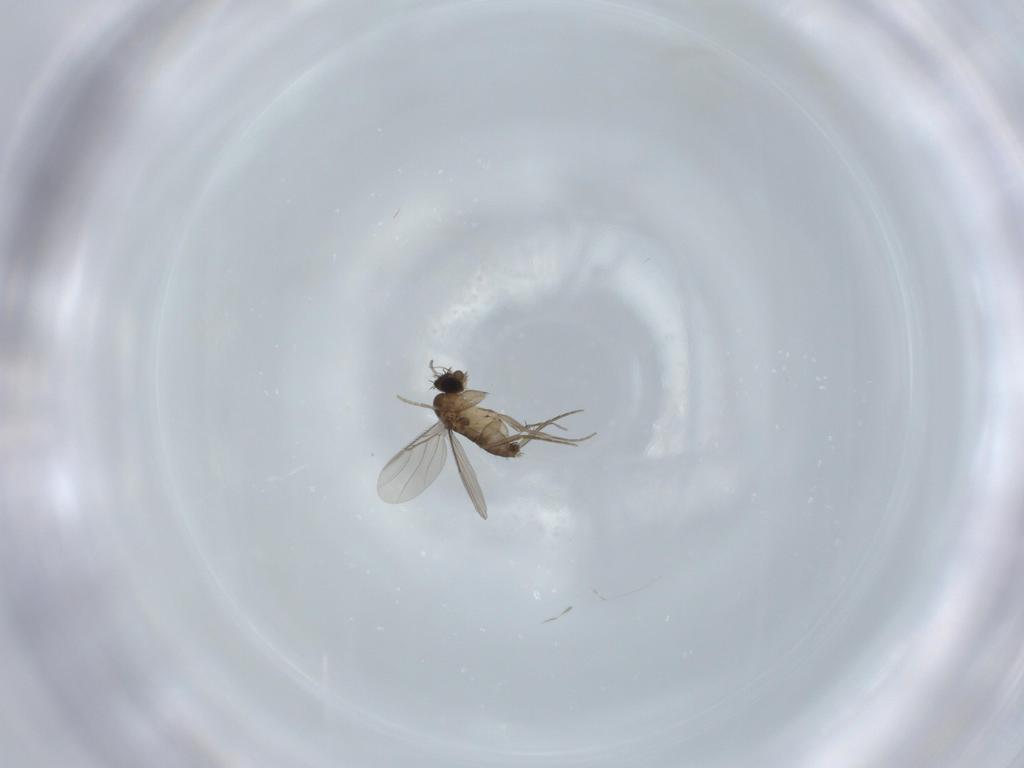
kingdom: Animalia
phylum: Arthropoda
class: Insecta
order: Diptera
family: Phoridae
